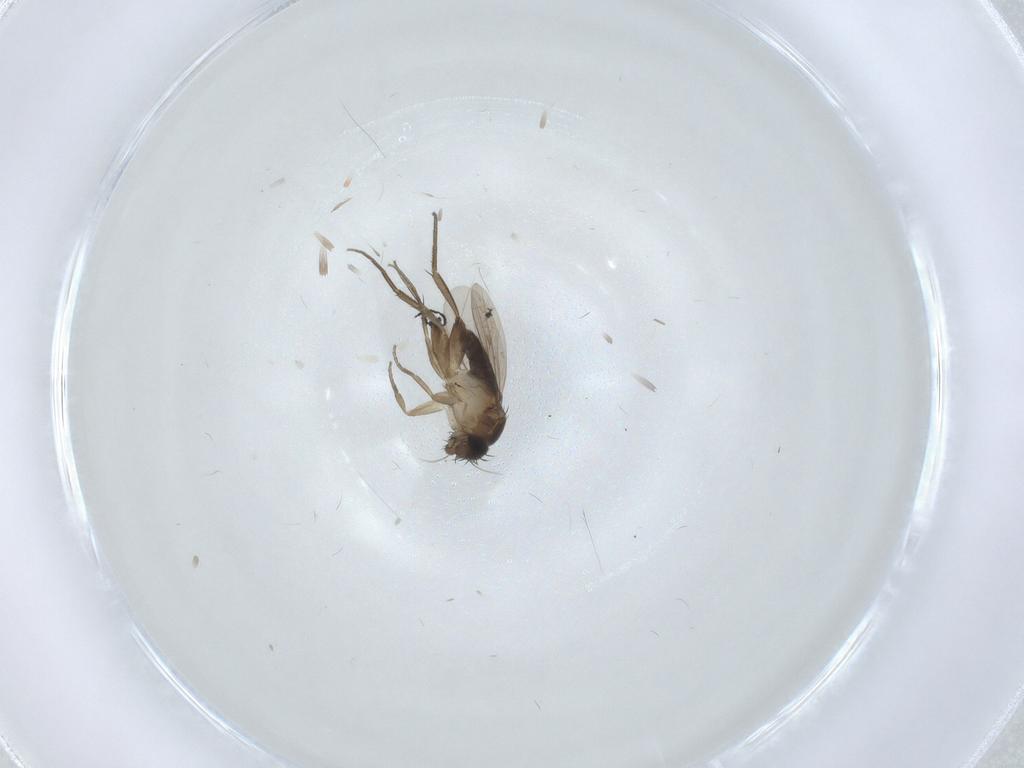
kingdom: Animalia
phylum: Arthropoda
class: Insecta
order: Diptera
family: Phoridae
